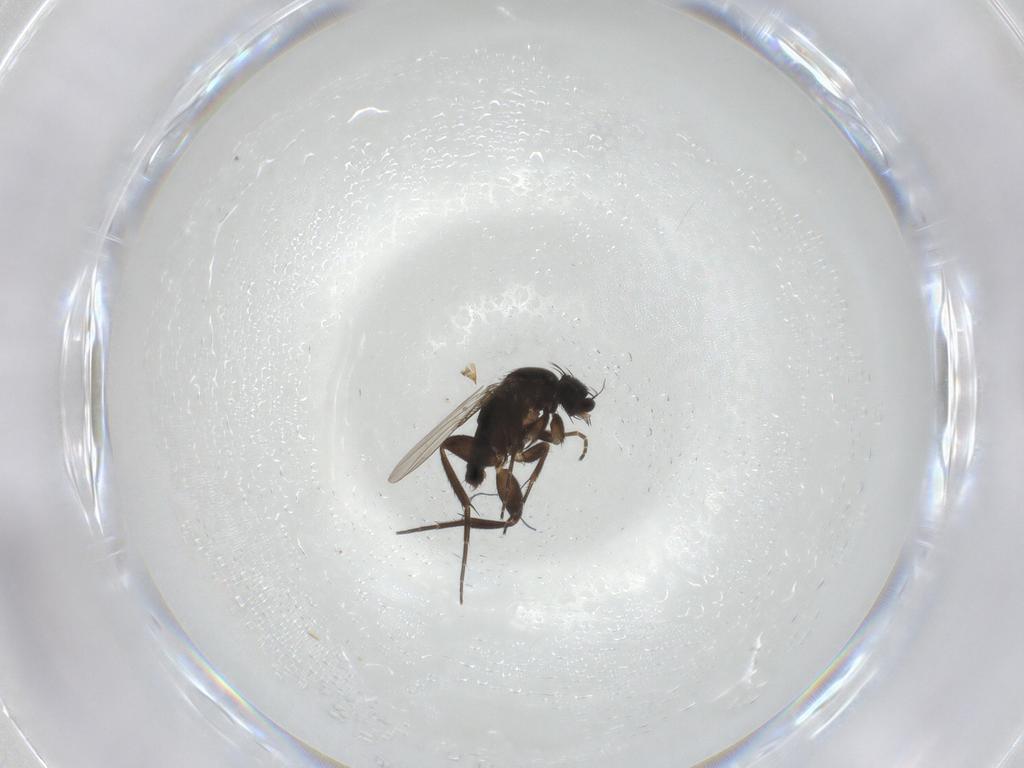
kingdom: Animalia
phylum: Arthropoda
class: Insecta
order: Diptera
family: Phoridae
